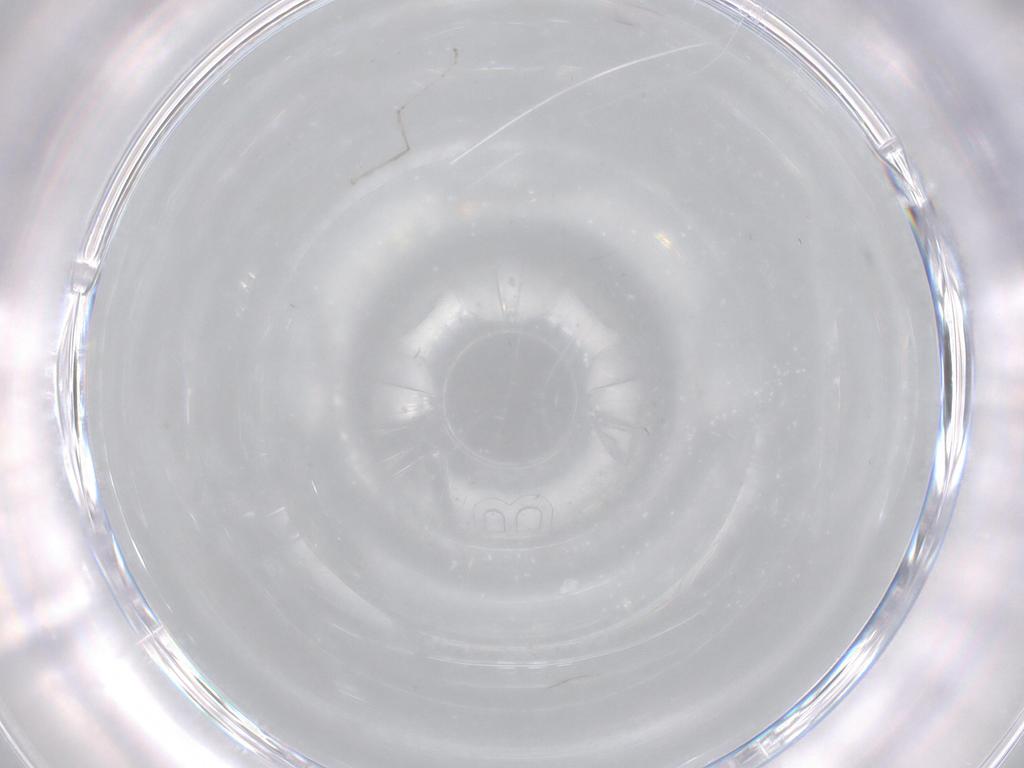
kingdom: Animalia
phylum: Arthropoda
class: Insecta
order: Diptera
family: Cecidomyiidae
